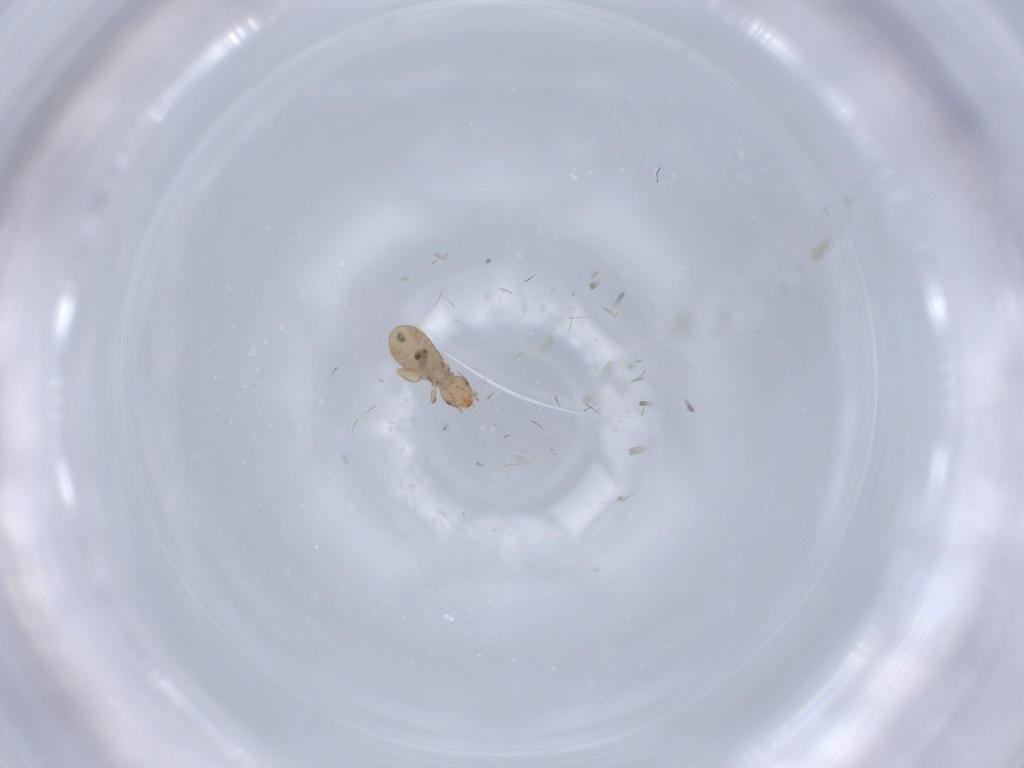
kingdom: Animalia
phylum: Arthropoda
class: Insecta
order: Psocodea
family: Liposcelididae
